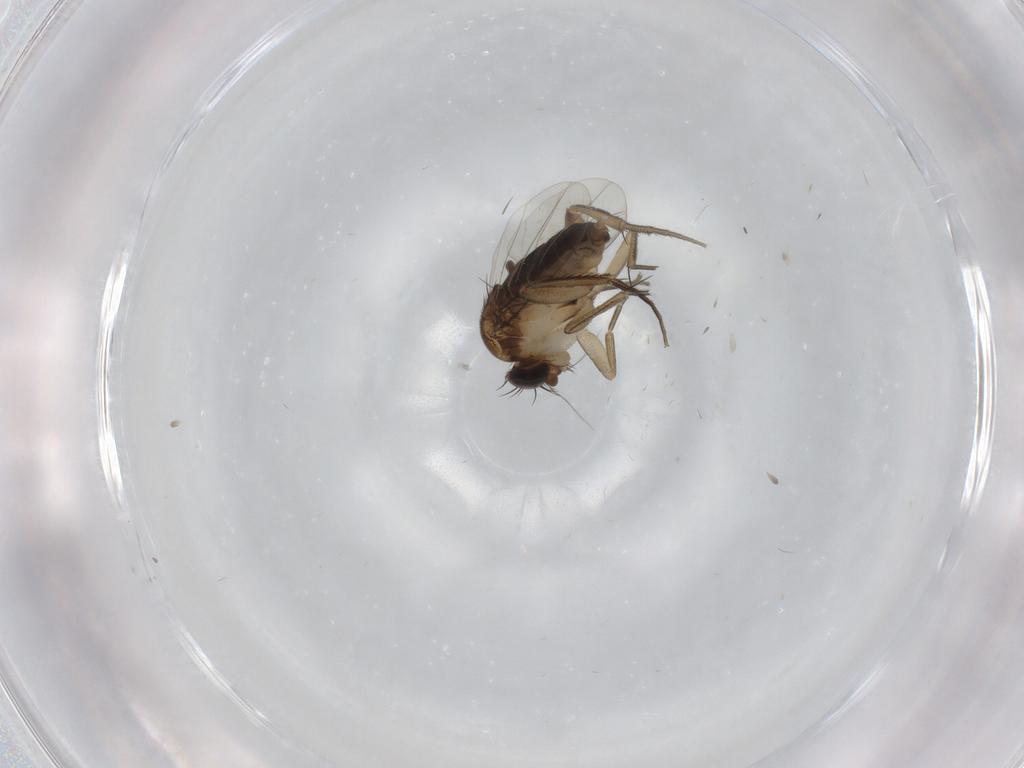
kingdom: Animalia
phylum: Arthropoda
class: Insecta
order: Diptera
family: Phoridae
